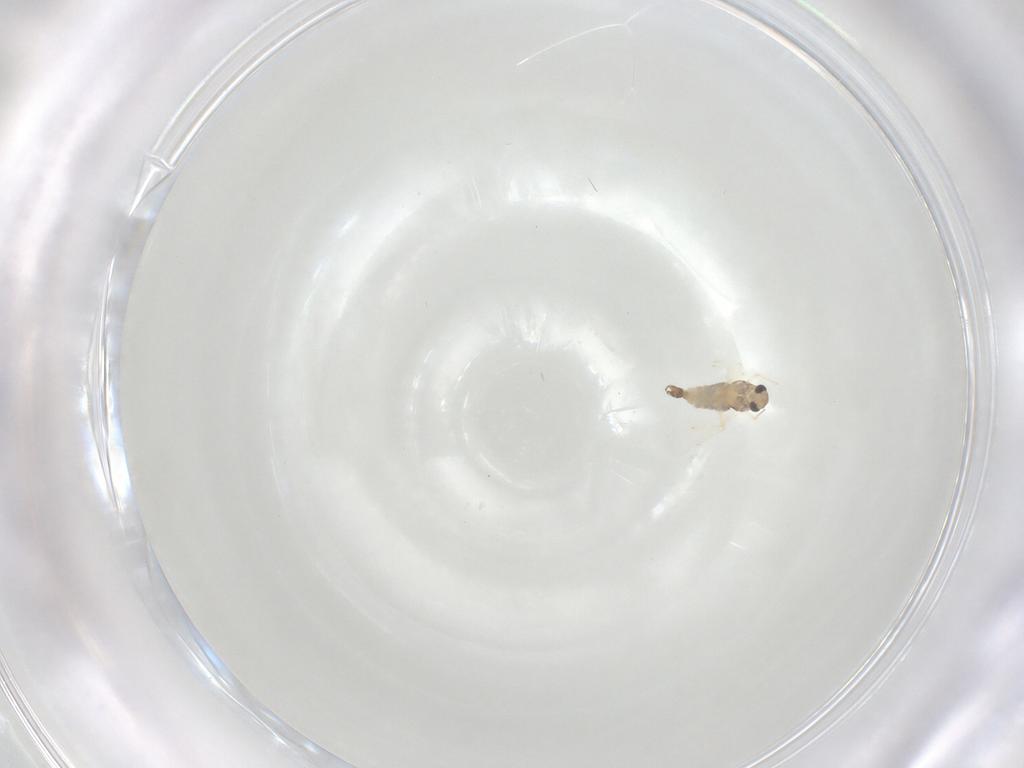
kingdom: Animalia
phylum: Arthropoda
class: Insecta
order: Diptera
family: Chironomidae
